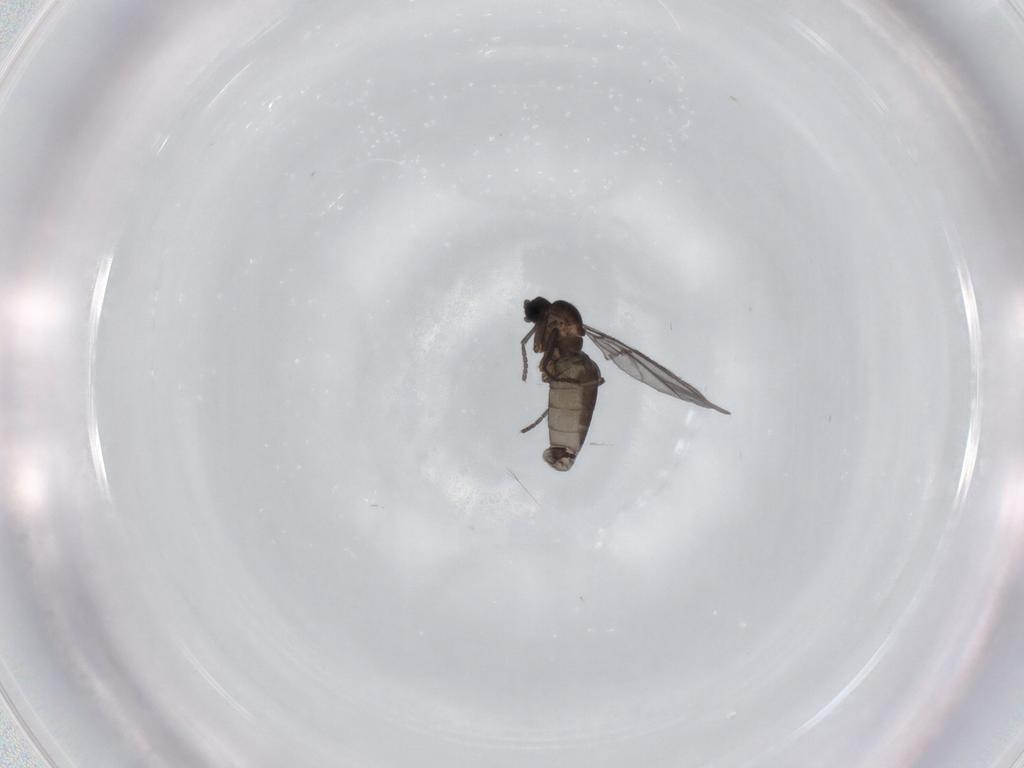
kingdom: Animalia
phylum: Arthropoda
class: Insecta
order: Diptera
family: Sciaridae
